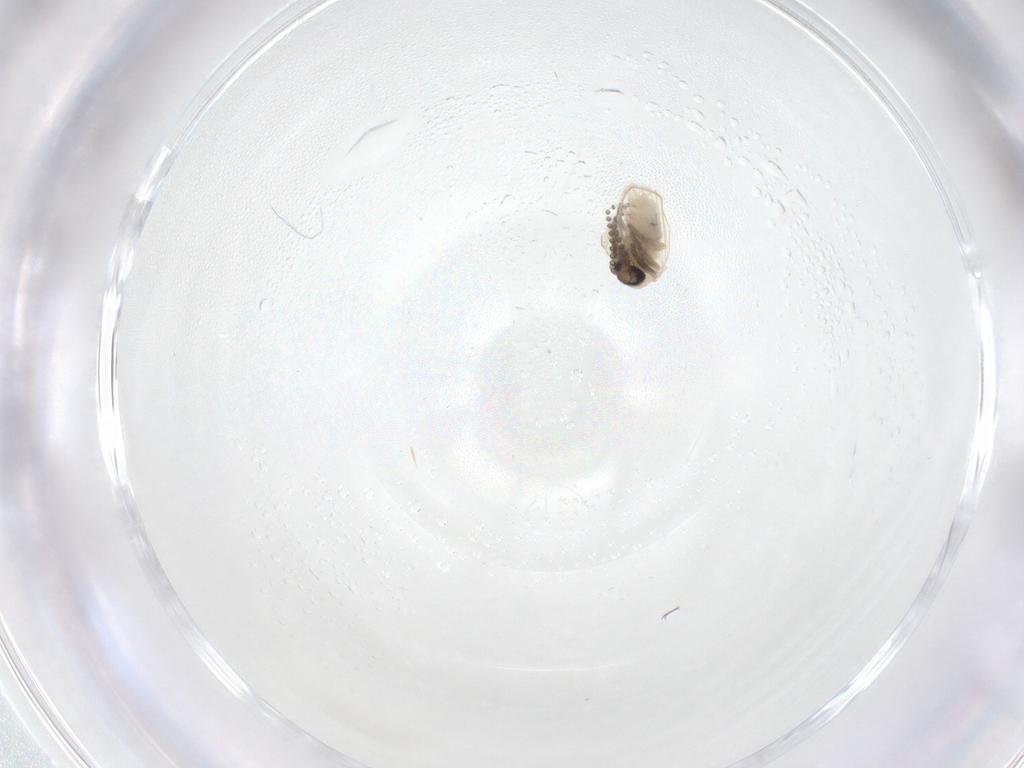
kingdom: Animalia
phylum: Arthropoda
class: Insecta
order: Diptera
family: Psychodidae
